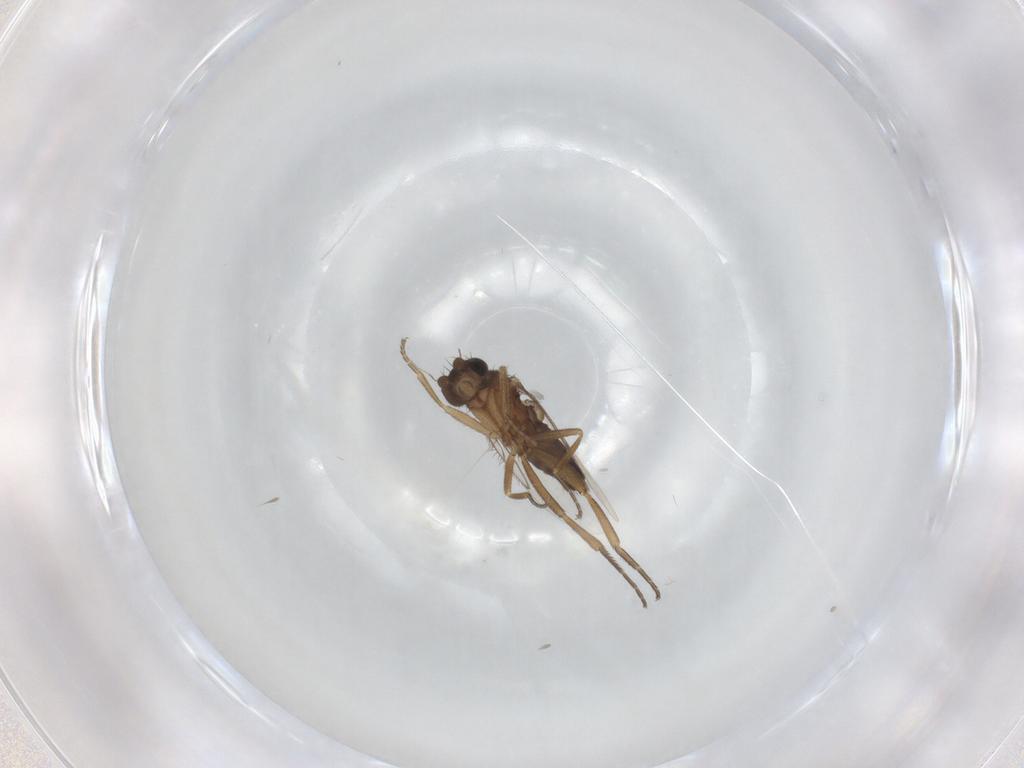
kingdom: Animalia
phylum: Arthropoda
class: Insecta
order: Diptera
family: Phoridae
